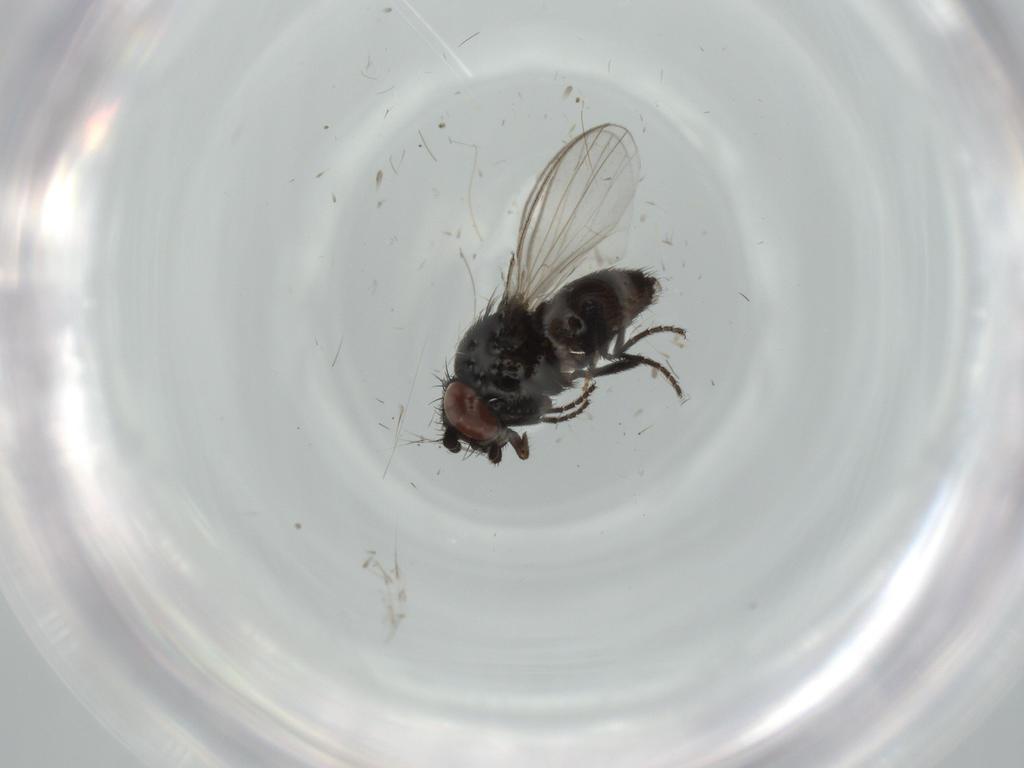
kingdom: Animalia
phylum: Arthropoda
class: Insecta
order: Diptera
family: Milichiidae
